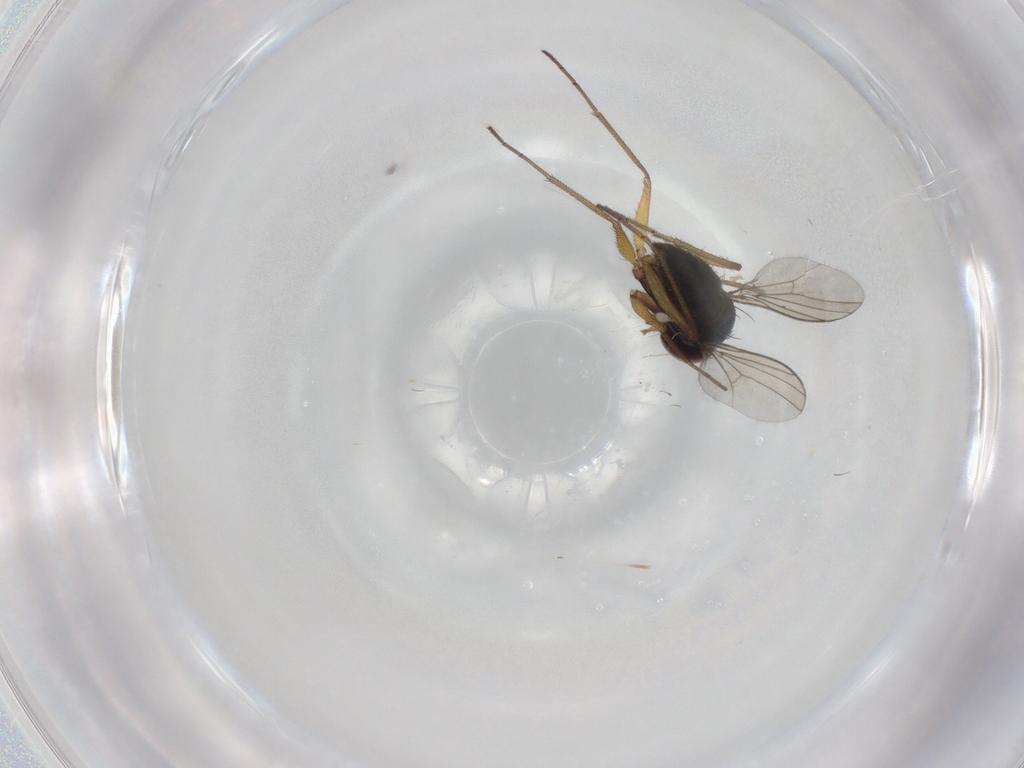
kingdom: Animalia
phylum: Arthropoda
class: Insecta
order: Diptera
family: Dolichopodidae
